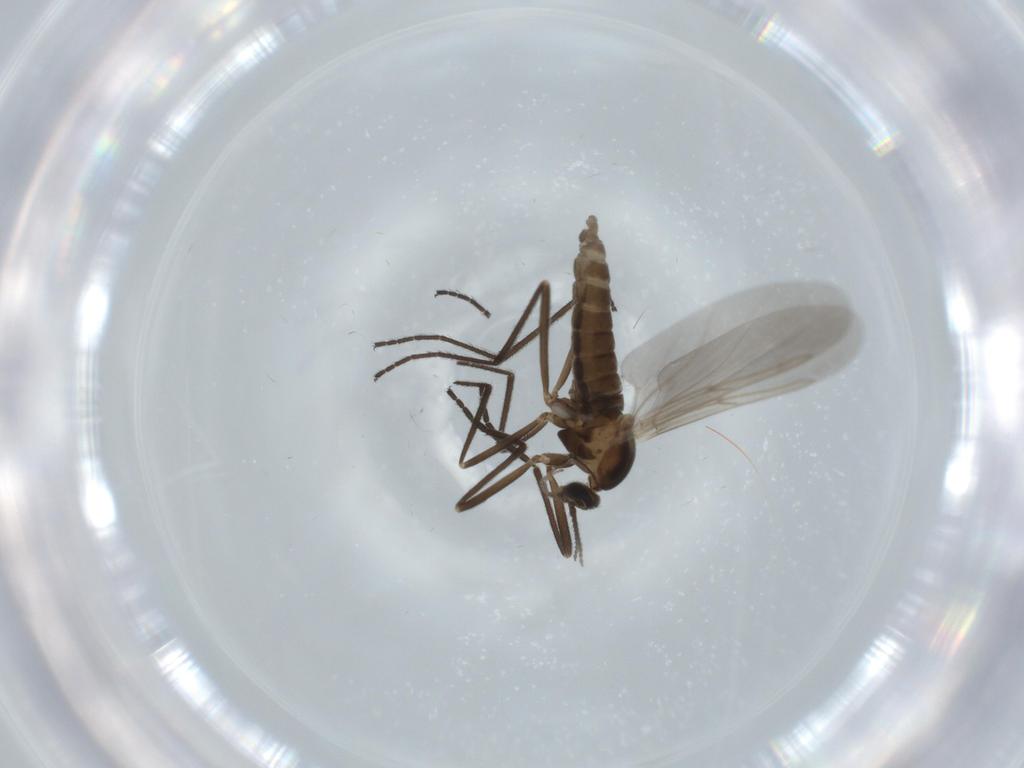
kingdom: Animalia
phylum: Arthropoda
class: Insecta
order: Diptera
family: Cecidomyiidae
